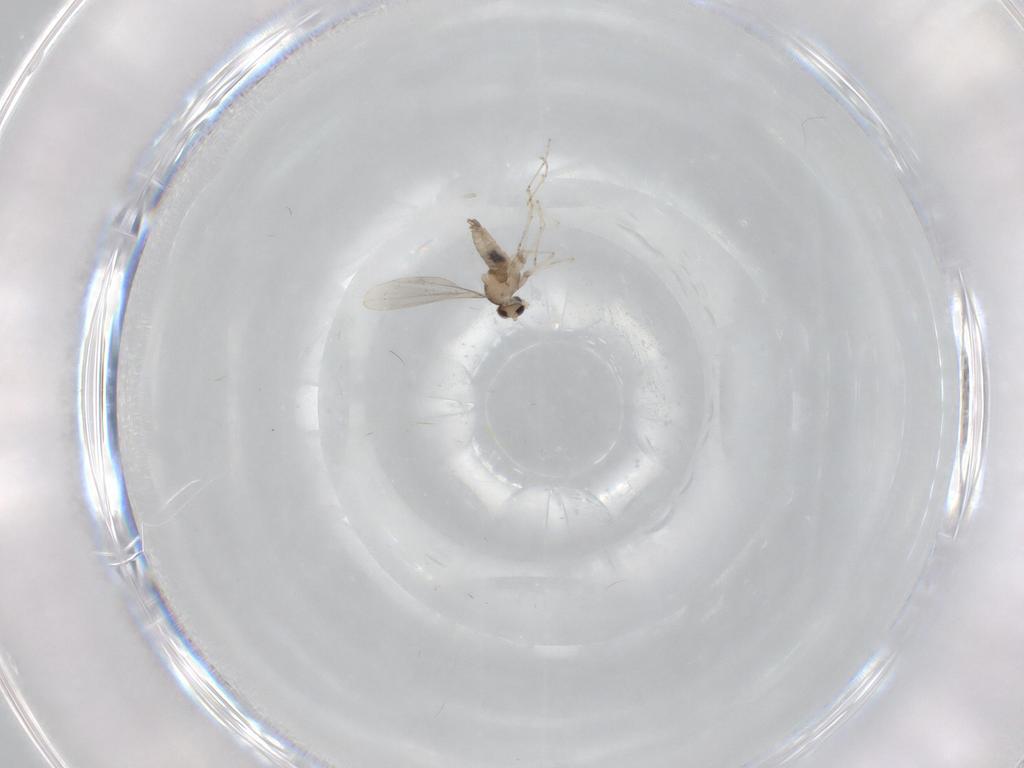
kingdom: Animalia
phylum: Arthropoda
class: Insecta
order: Diptera
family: Cecidomyiidae
